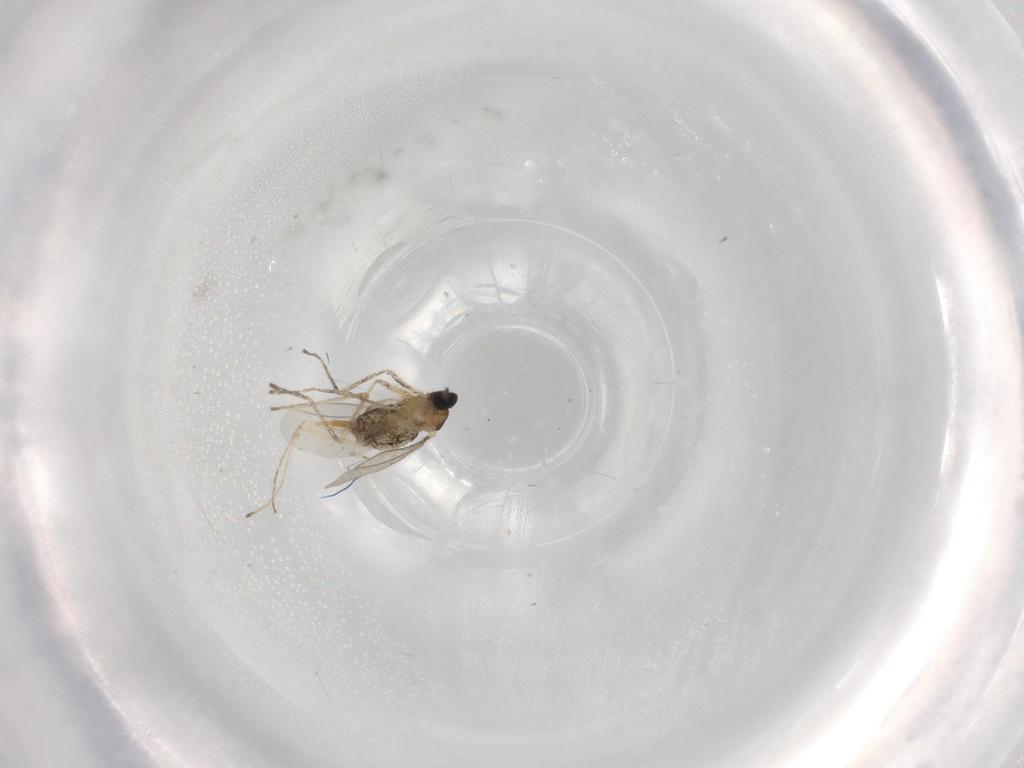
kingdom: Animalia
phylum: Arthropoda
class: Insecta
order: Diptera
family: Cecidomyiidae
